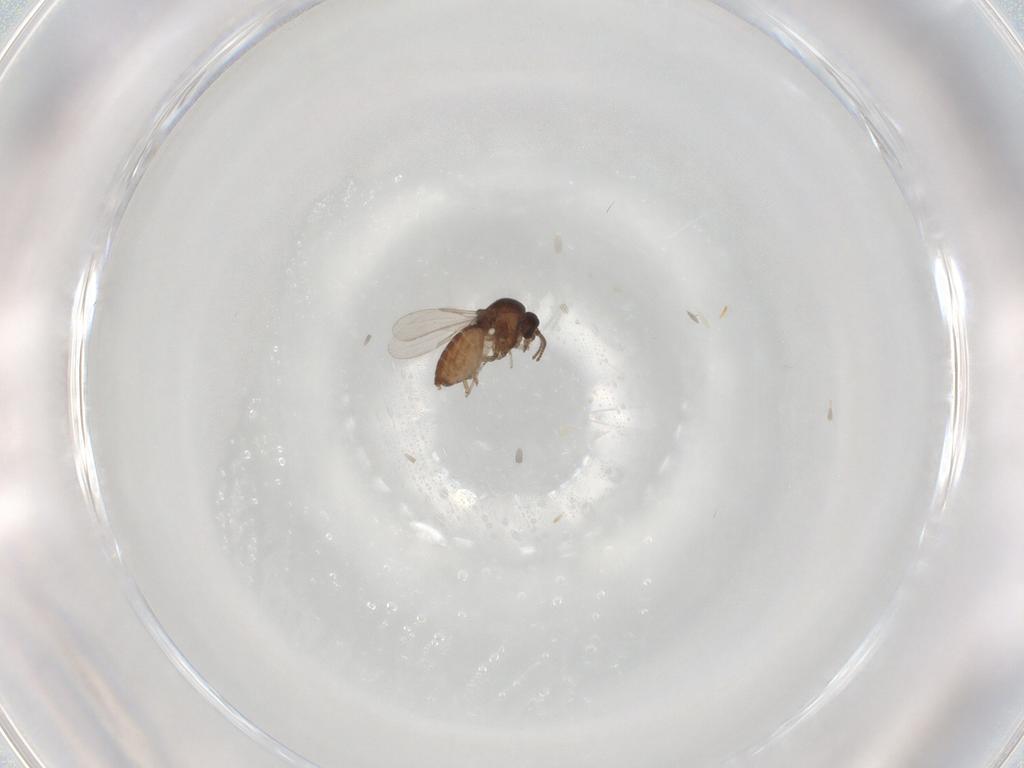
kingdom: Animalia
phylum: Arthropoda
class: Insecta
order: Diptera
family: Ceratopogonidae
